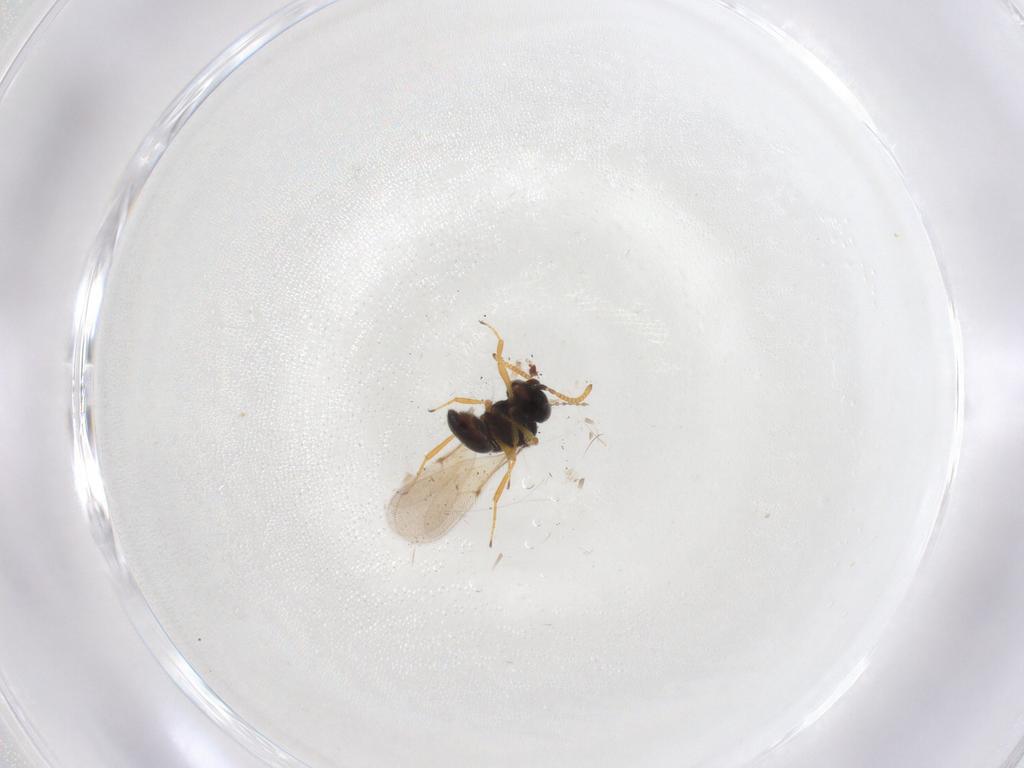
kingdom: Animalia
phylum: Arthropoda
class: Insecta
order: Hymenoptera
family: Scelionidae
